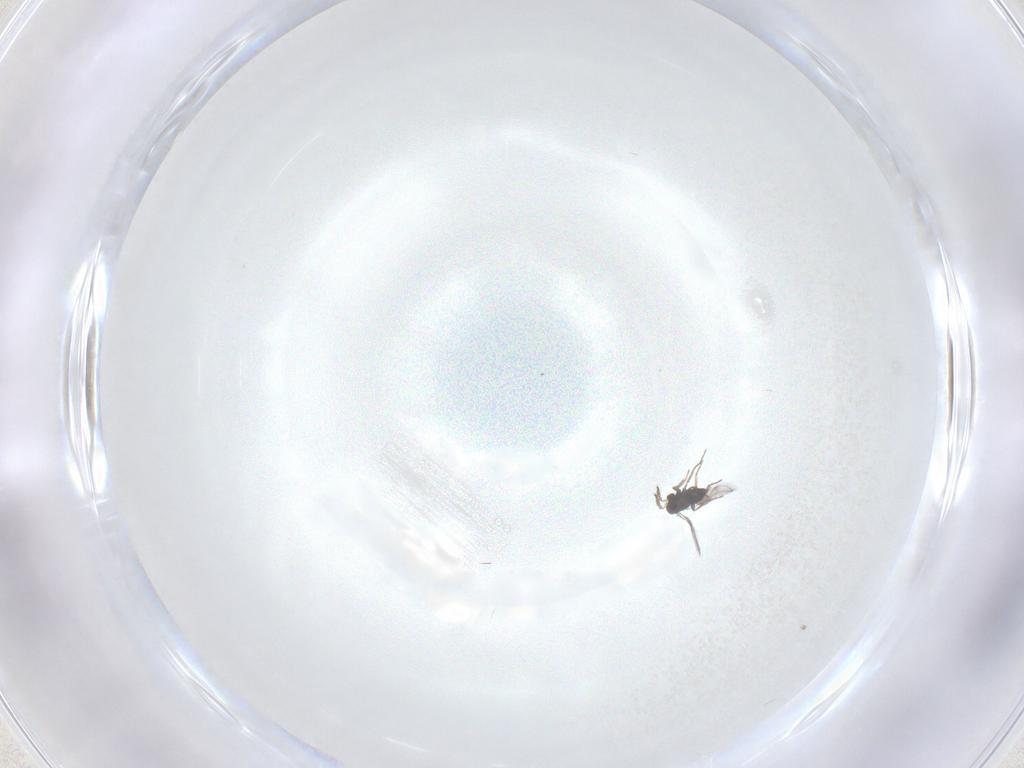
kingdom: Animalia
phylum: Arthropoda
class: Insecta
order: Hymenoptera
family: Trichogrammatidae
